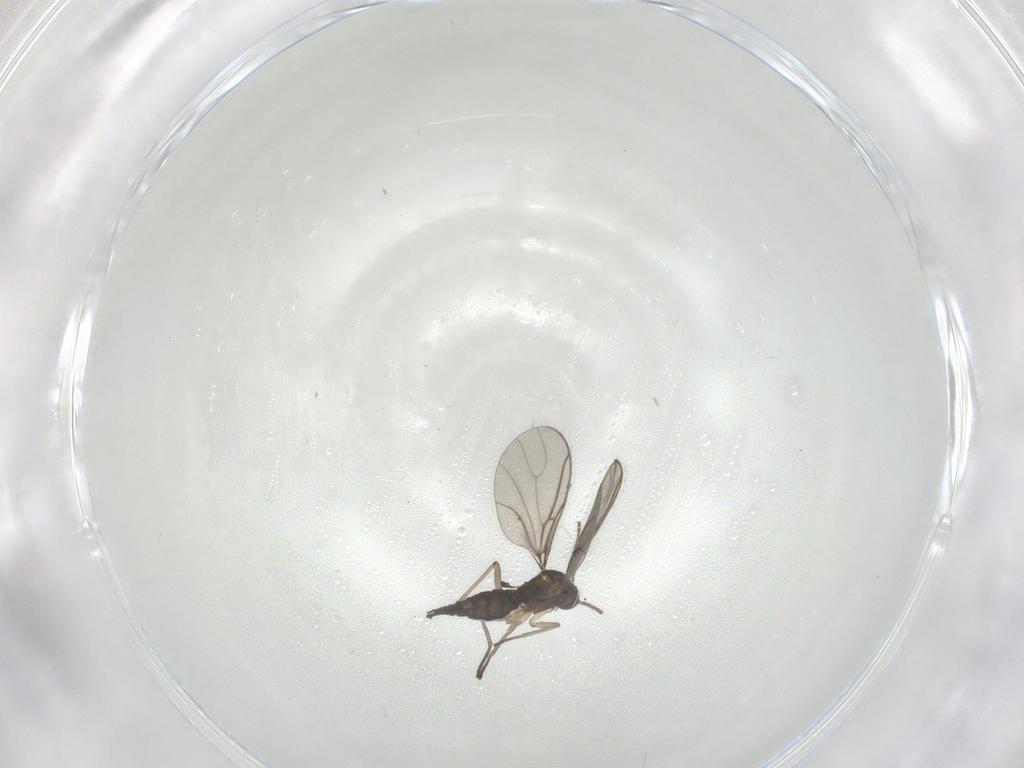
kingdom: Animalia
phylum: Arthropoda
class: Insecta
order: Diptera
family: Sciaridae
